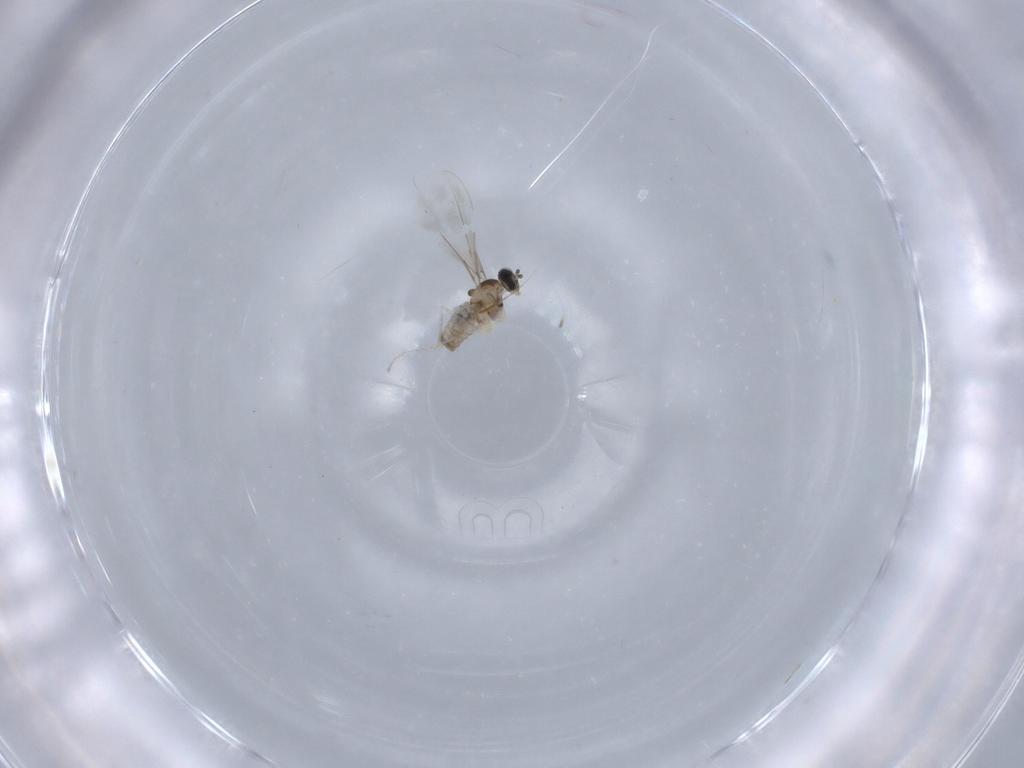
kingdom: Animalia
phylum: Arthropoda
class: Insecta
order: Diptera
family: Cecidomyiidae
